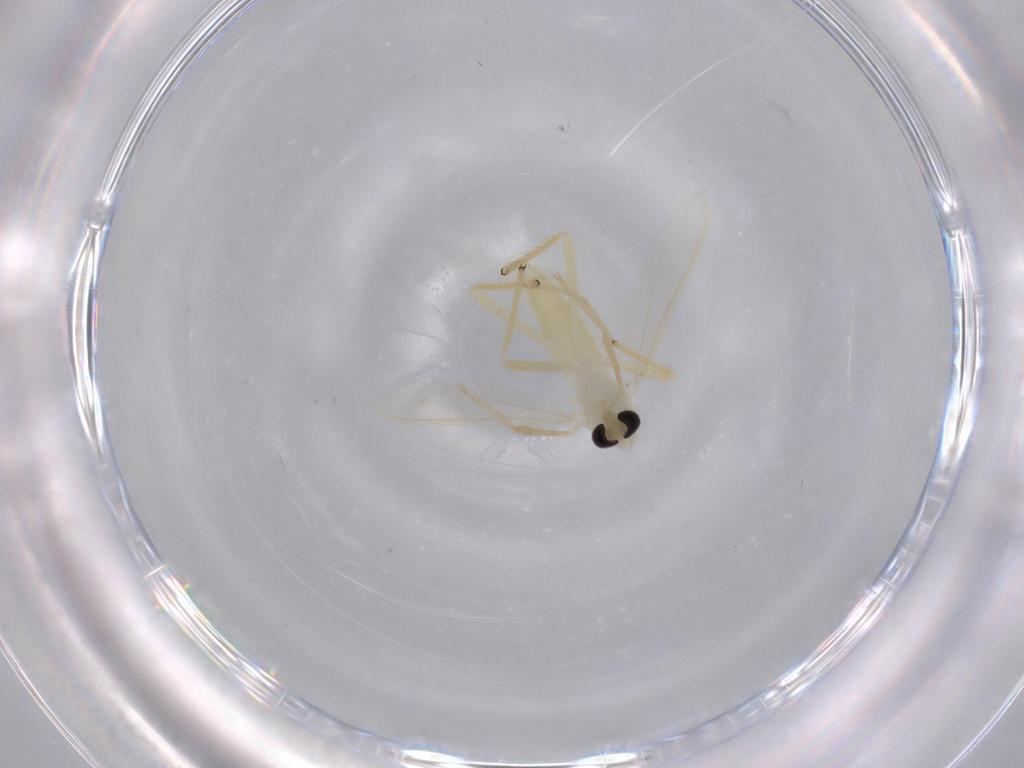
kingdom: Animalia
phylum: Arthropoda
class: Insecta
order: Diptera
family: Chironomidae
